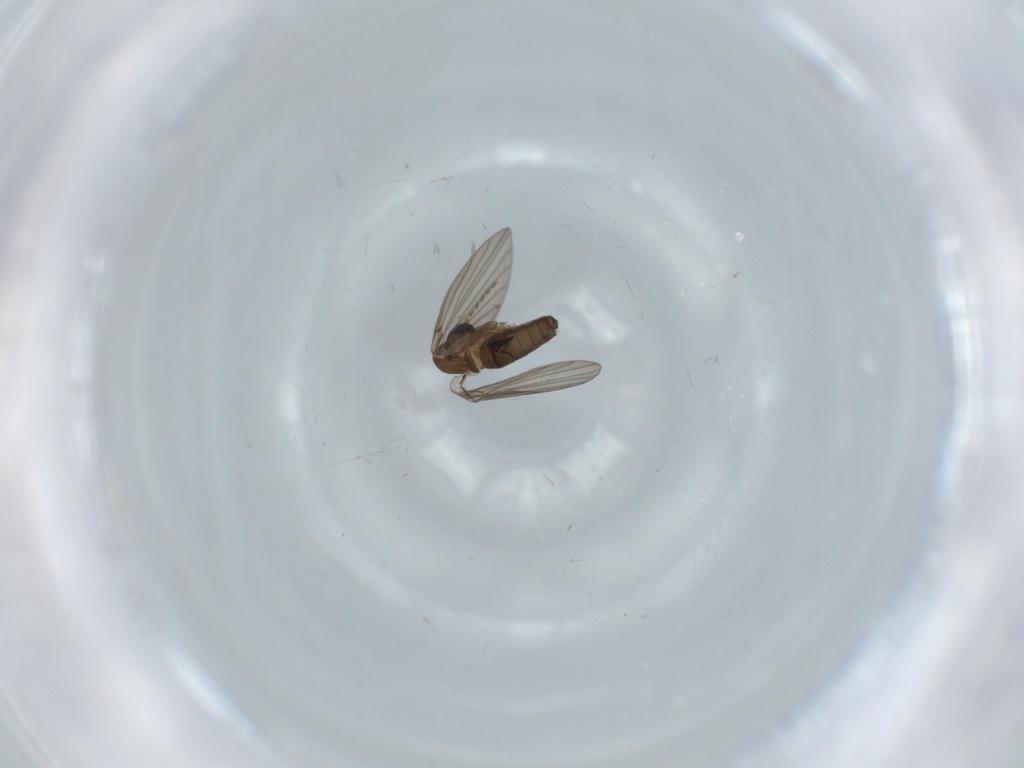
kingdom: Animalia
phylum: Arthropoda
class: Insecta
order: Diptera
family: Psychodidae
